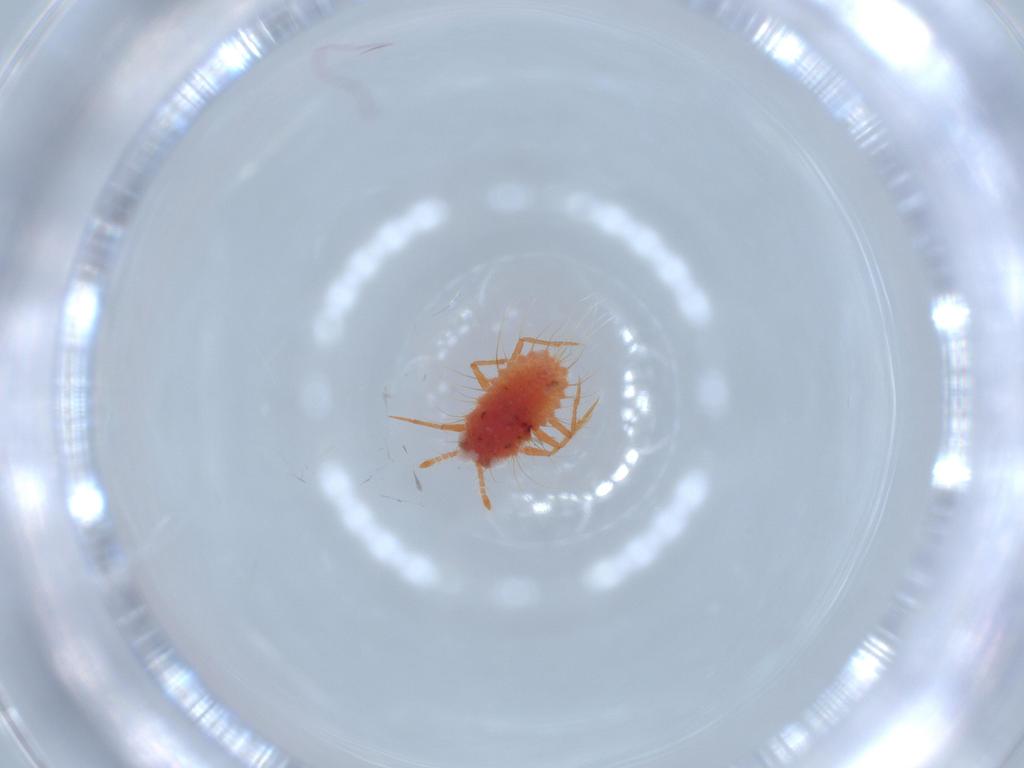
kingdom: Animalia
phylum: Arthropoda
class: Insecta
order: Hemiptera
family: Monophlebidae
